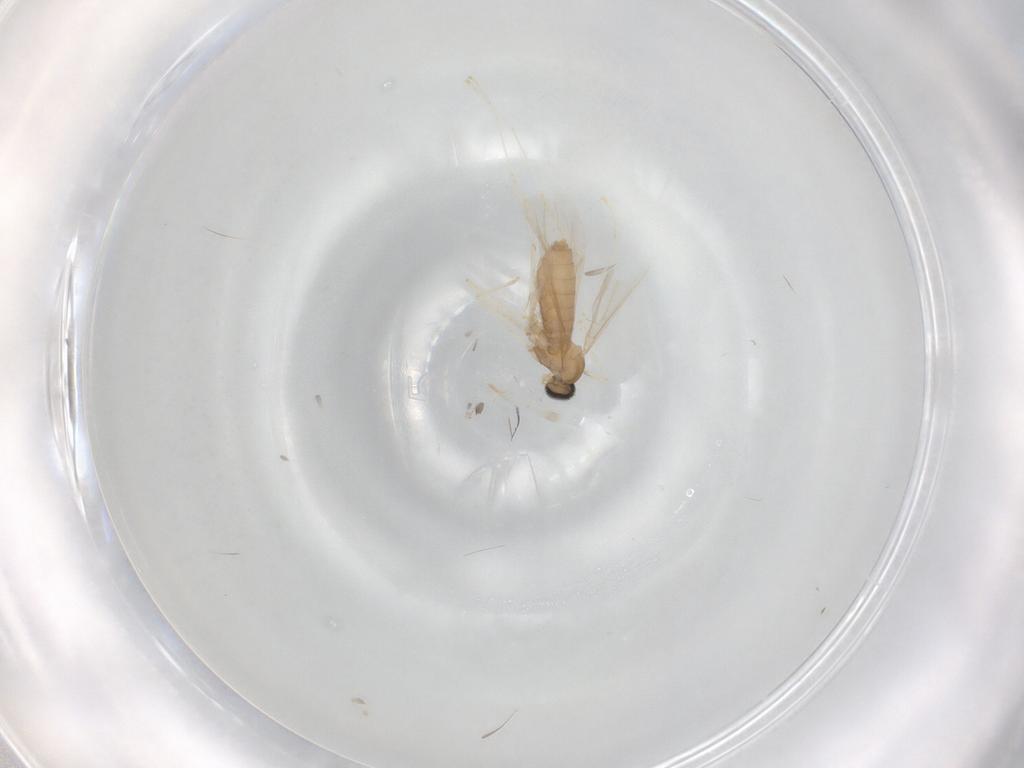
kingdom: Animalia
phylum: Arthropoda
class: Insecta
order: Diptera
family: Cecidomyiidae
